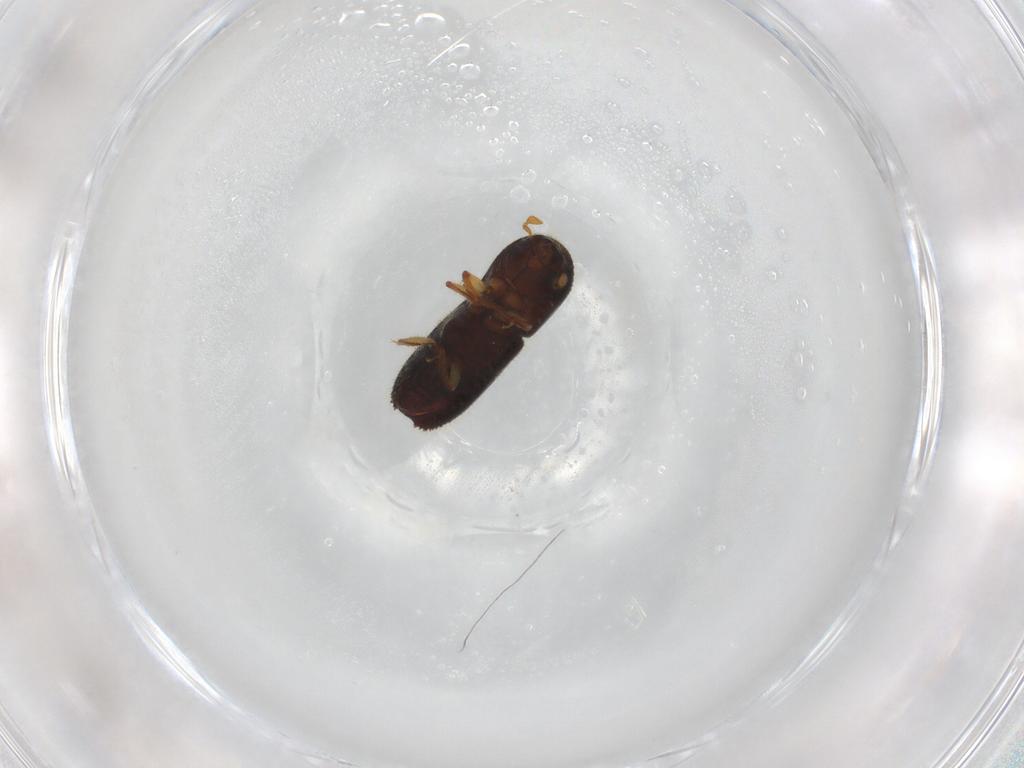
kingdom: Animalia
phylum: Arthropoda
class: Insecta
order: Coleoptera
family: Curculionidae
